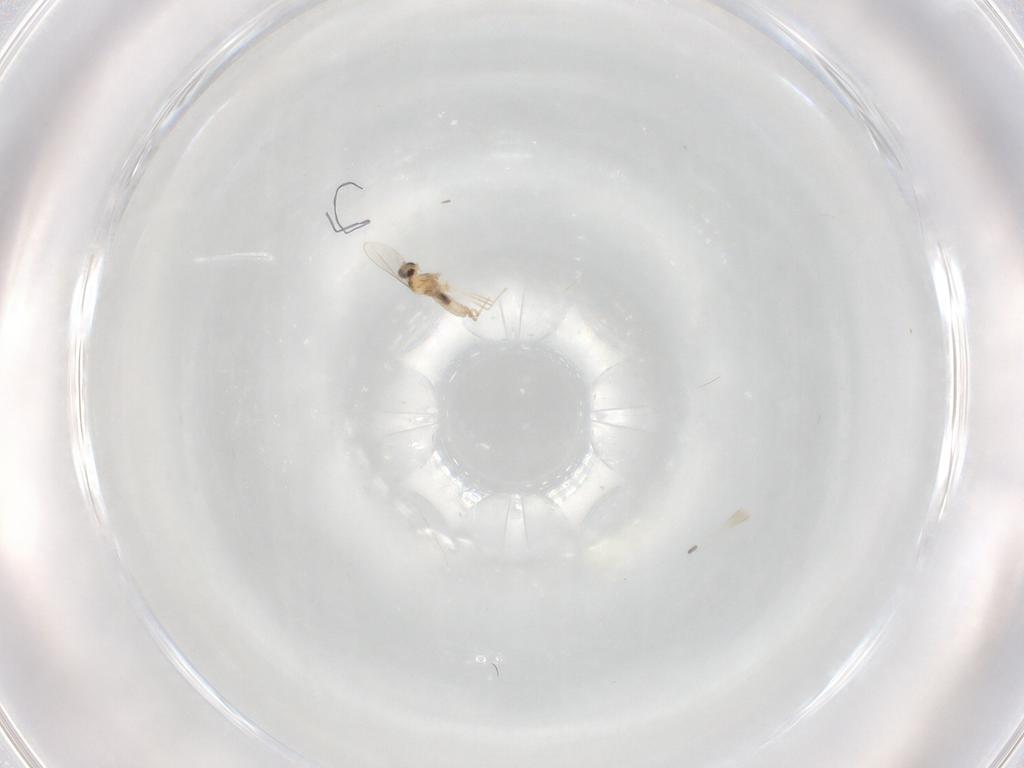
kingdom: Animalia
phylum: Arthropoda
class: Insecta
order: Diptera
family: Cecidomyiidae
